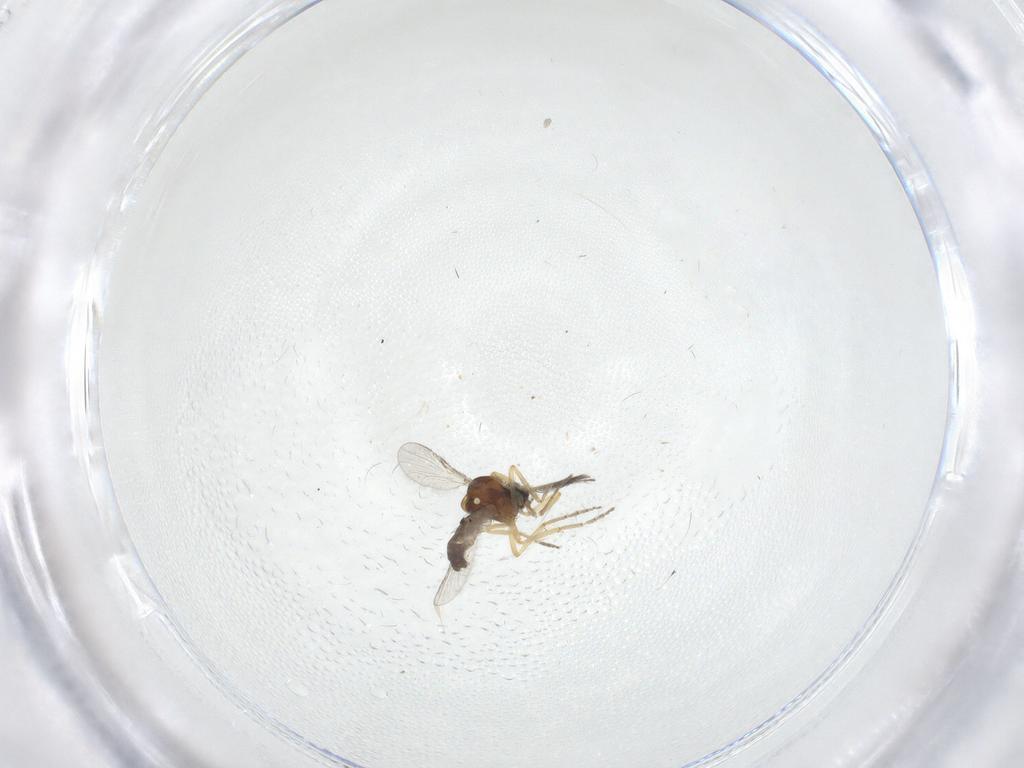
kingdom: Animalia
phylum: Arthropoda
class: Insecta
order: Diptera
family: Cecidomyiidae
